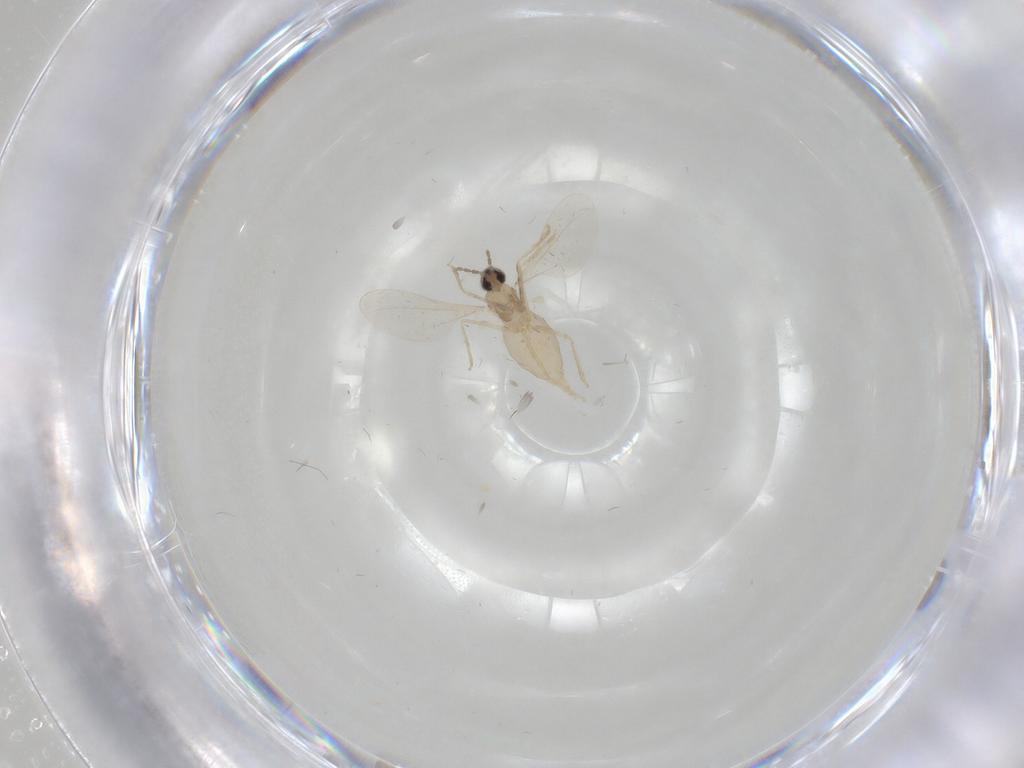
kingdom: Animalia
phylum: Arthropoda
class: Insecta
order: Diptera
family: Cecidomyiidae
